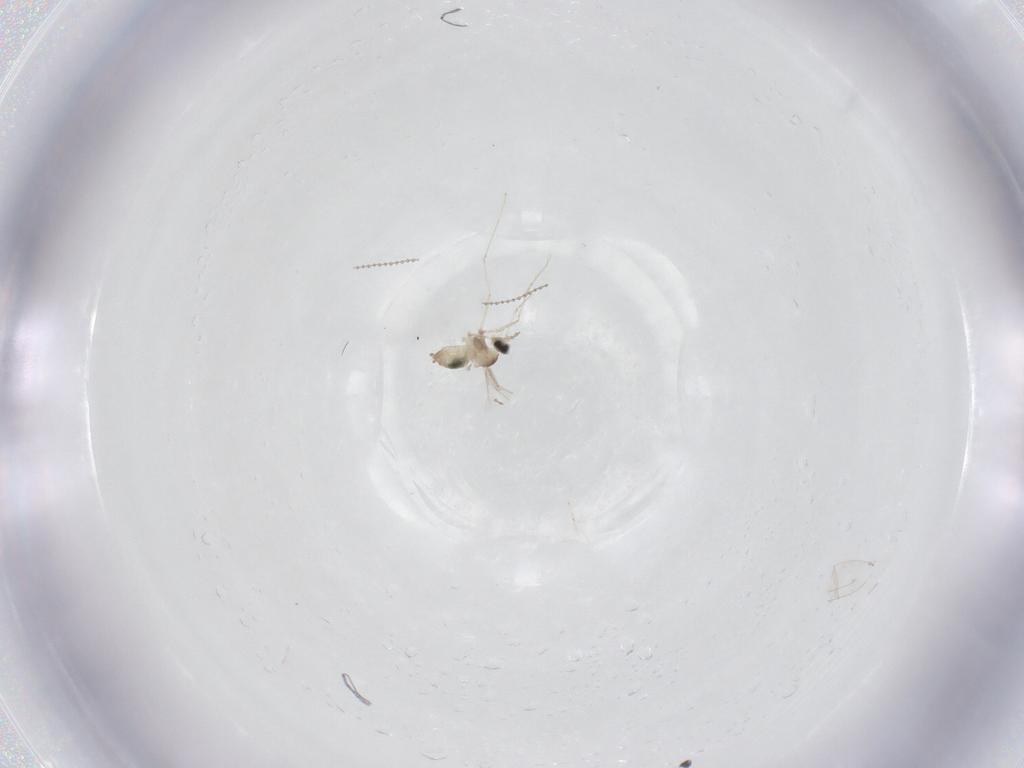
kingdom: Animalia
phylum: Arthropoda
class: Insecta
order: Diptera
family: Cecidomyiidae
